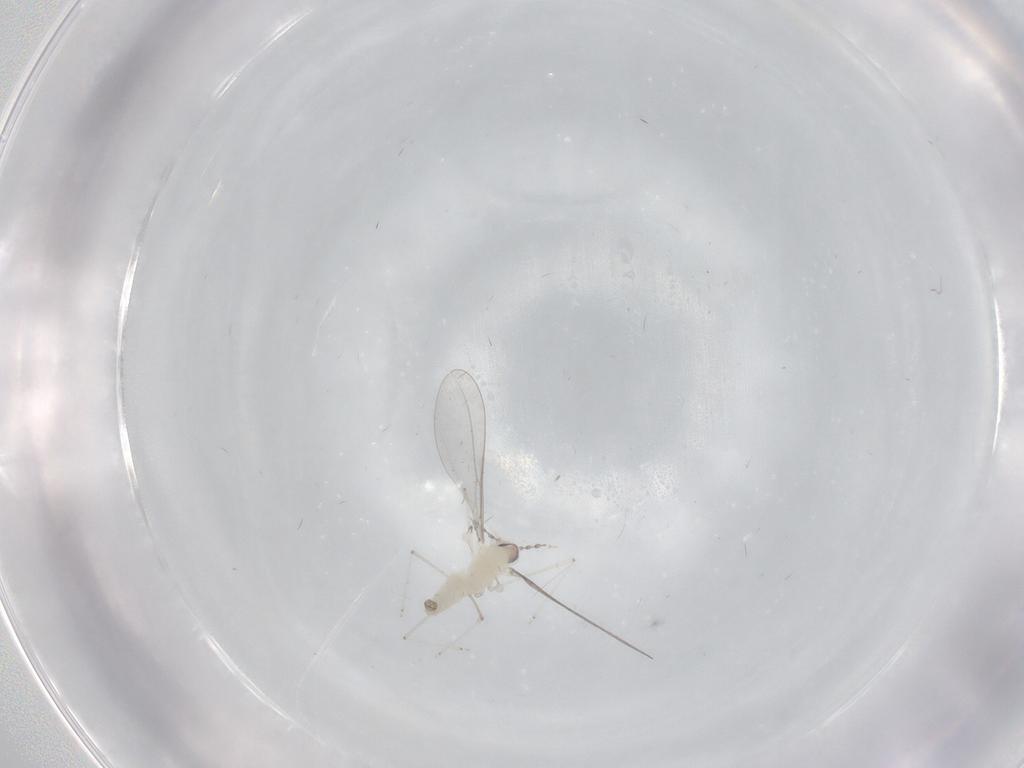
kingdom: Animalia
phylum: Arthropoda
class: Insecta
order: Diptera
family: Cecidomyiidae
